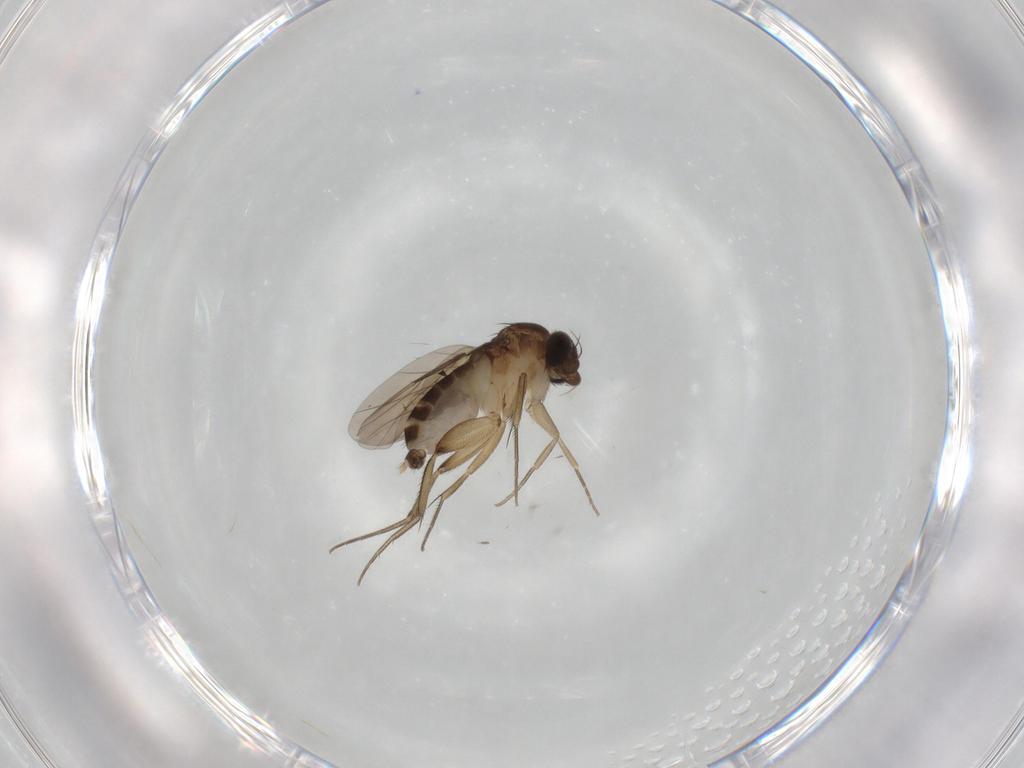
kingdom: Animalia
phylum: Arthropoda
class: Insecta
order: Diptera
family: Phoridae
